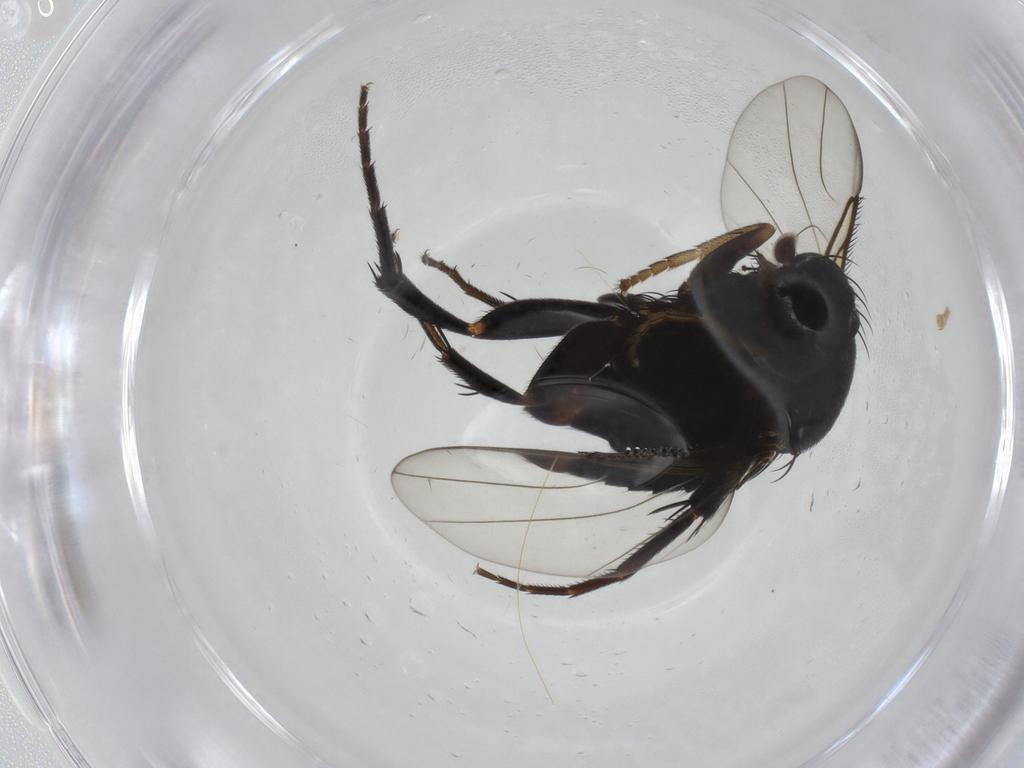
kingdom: Animalia
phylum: Arthropoda
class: Insecta
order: Diptera
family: Phoridae
